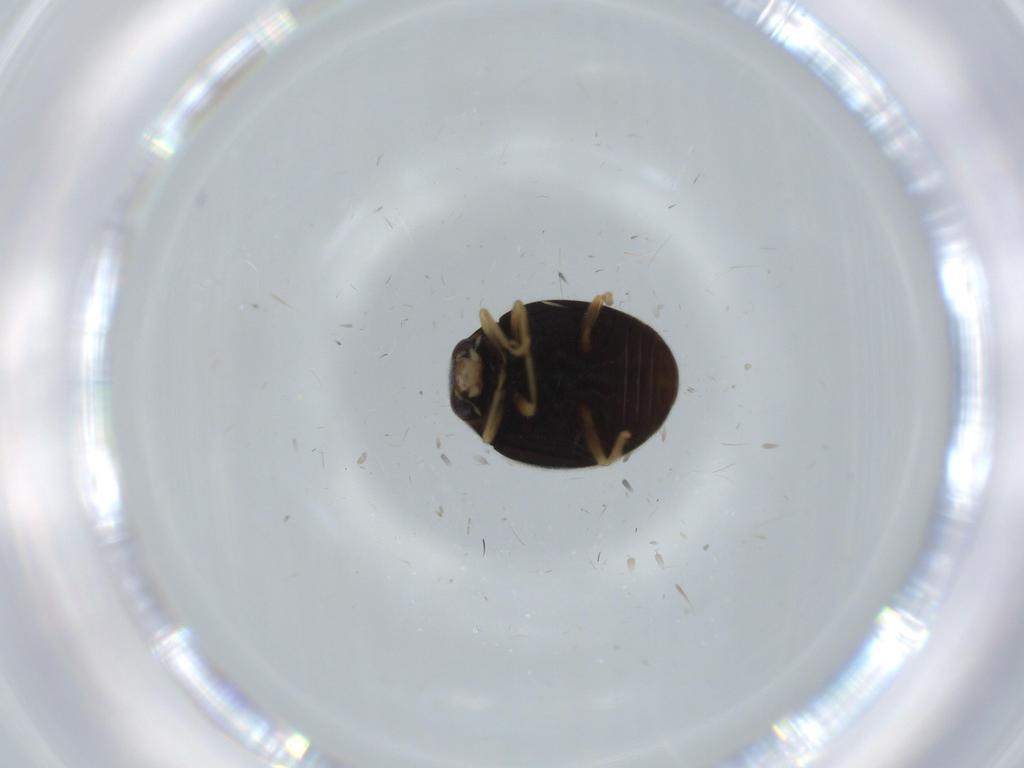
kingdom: Animalia
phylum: Arthropoda
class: Insecta
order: Coleoptera
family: Coccinellidae
